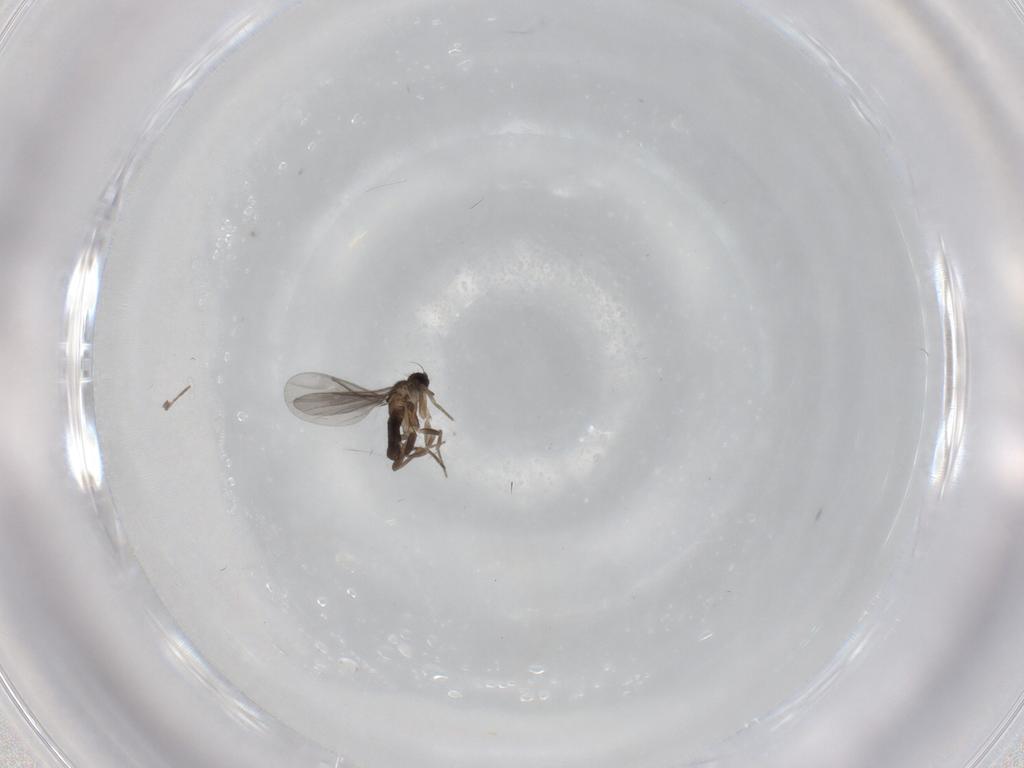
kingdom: Animalia
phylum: Arthropoda
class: Insecta
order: Diptera
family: Chironomidae
